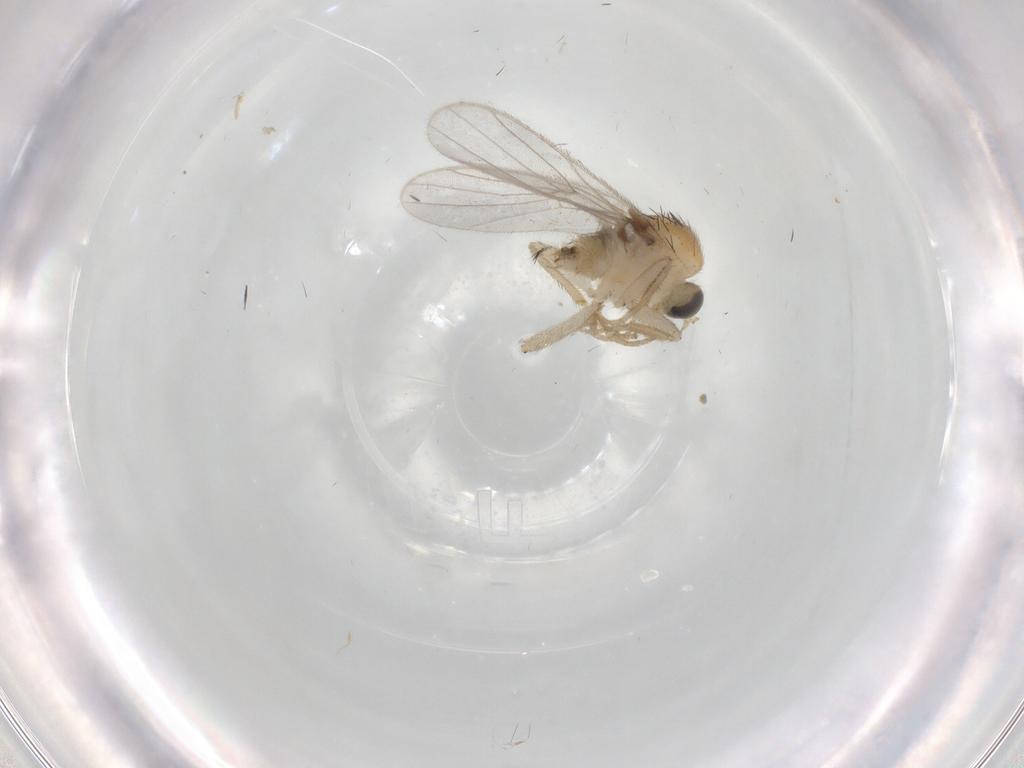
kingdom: Animalia
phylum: Arthropoda
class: Insecta
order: Diptera
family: Hybotidae
